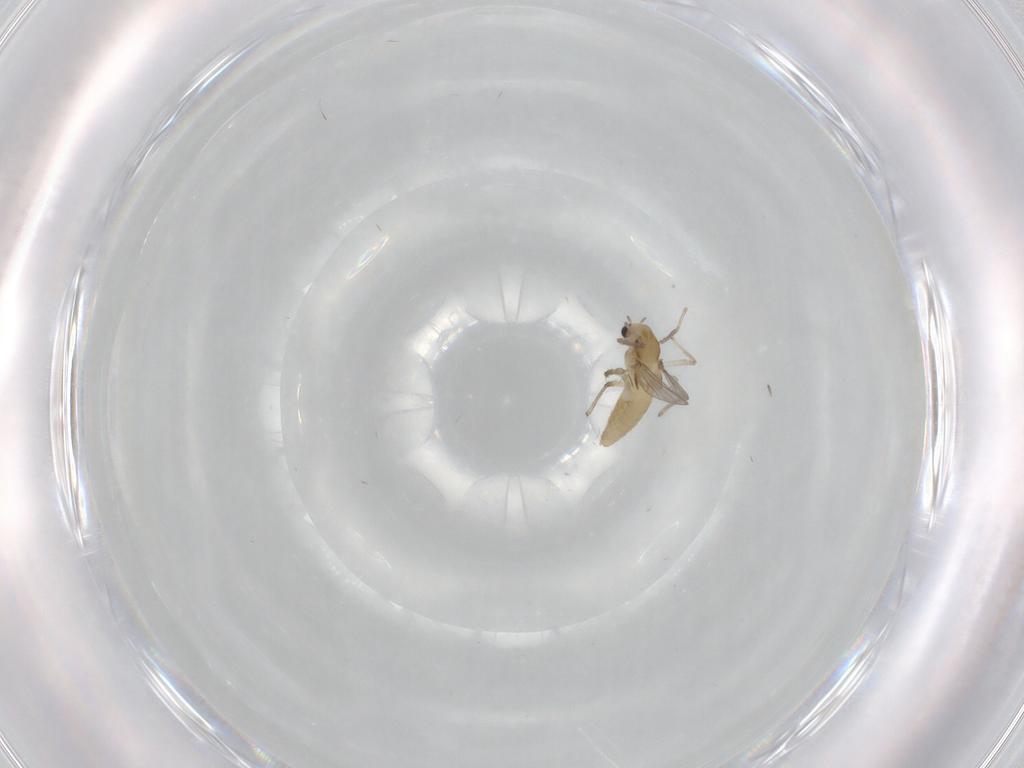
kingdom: Animalia
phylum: Arthropoda
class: Insecta
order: Diptera
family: Chironomidae
